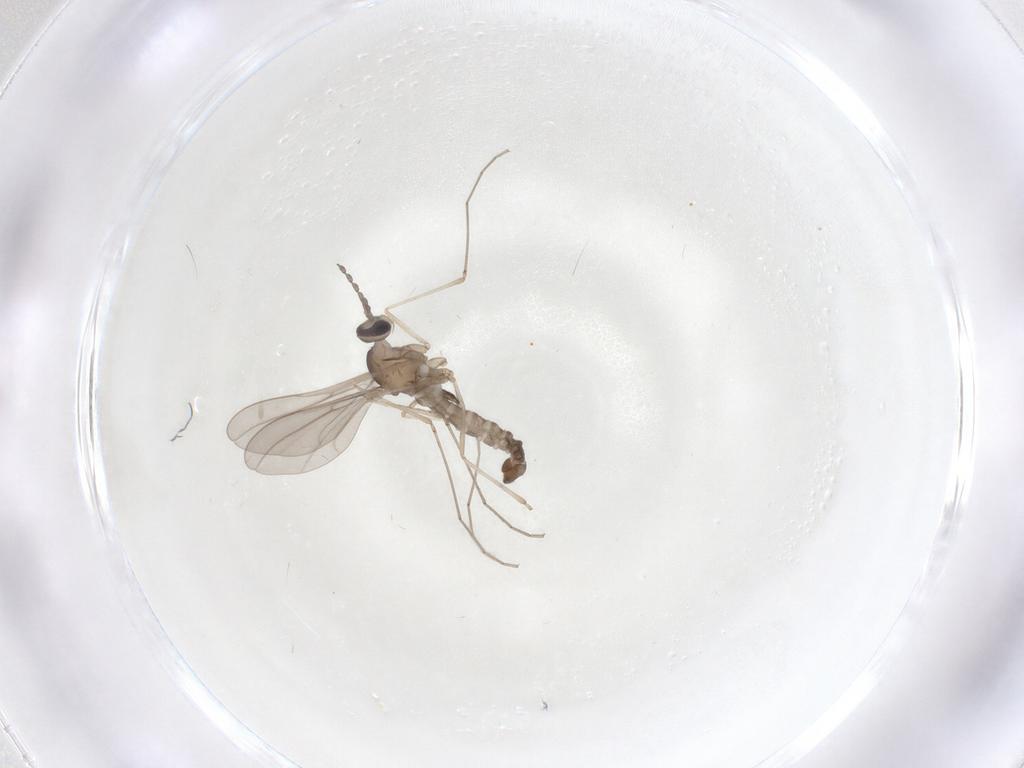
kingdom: Animalia
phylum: Arthropoda
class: Insecta
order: Diptera
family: Cecidomyiidae
